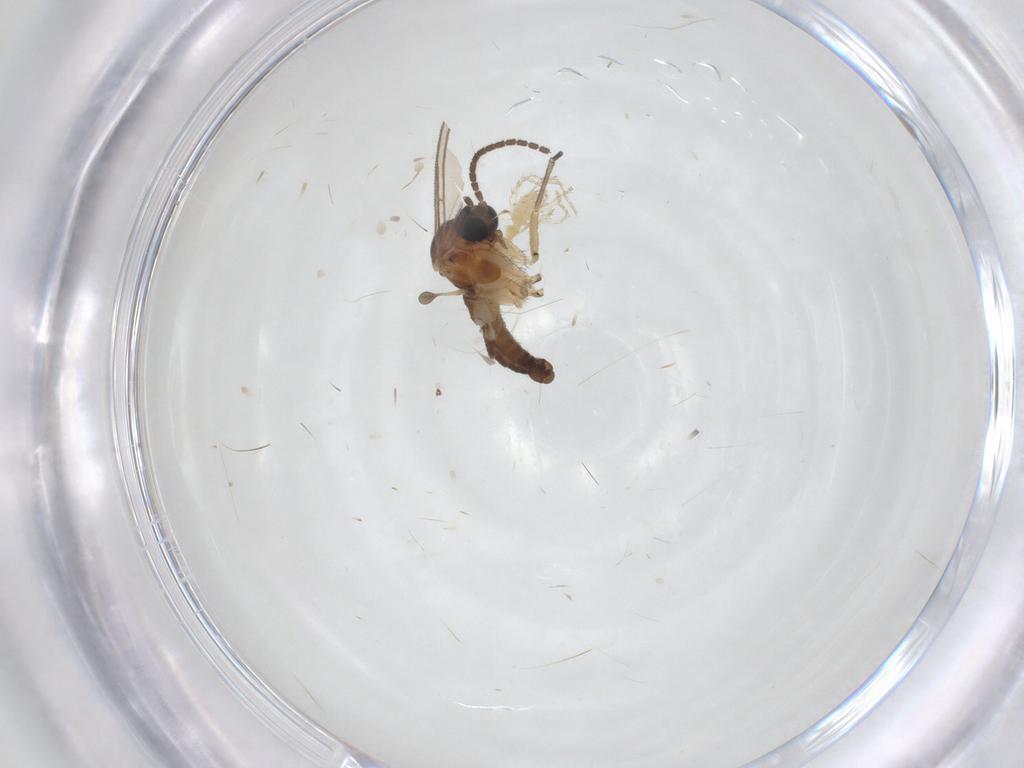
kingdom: Animalia
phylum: Arthropoda
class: Insecta
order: Diptera
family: Sciaridae
